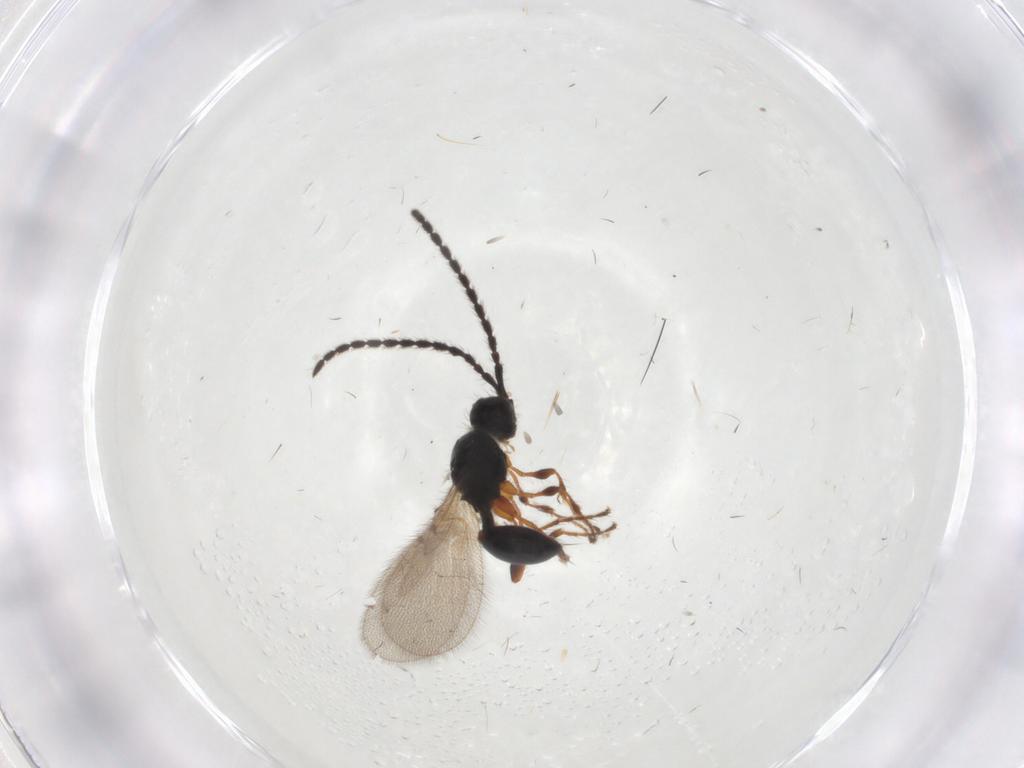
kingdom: Animalia
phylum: Arthropoda
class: Insecta
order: Hymenoptera
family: Diapriidae
